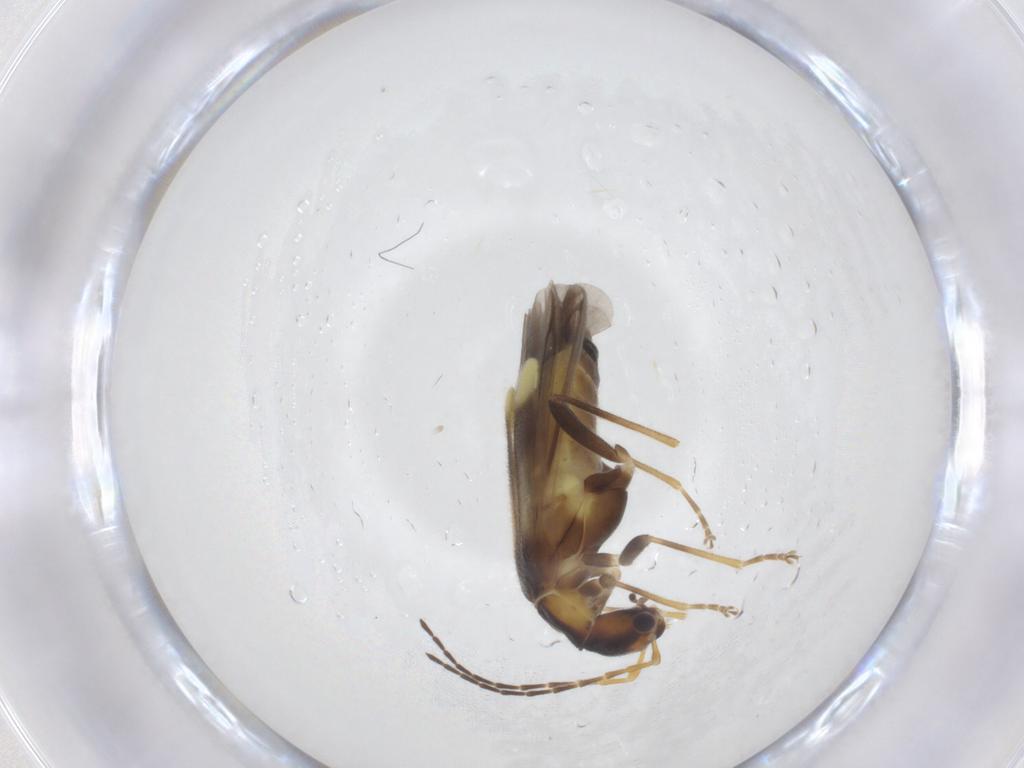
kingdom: Animalia
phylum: Arthropoda
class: Insecta
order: Coleoptera
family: Cantharidae
